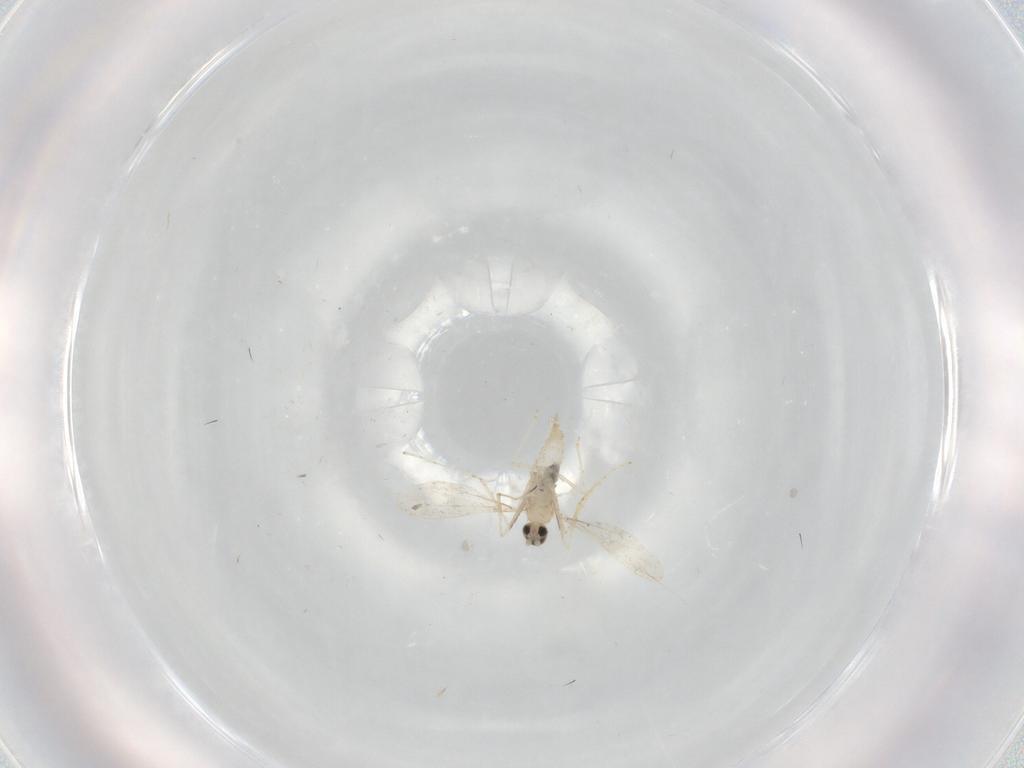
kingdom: Animalia
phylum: Arthropoda
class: Insecta
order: Diptera
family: Cecidomyiidae
